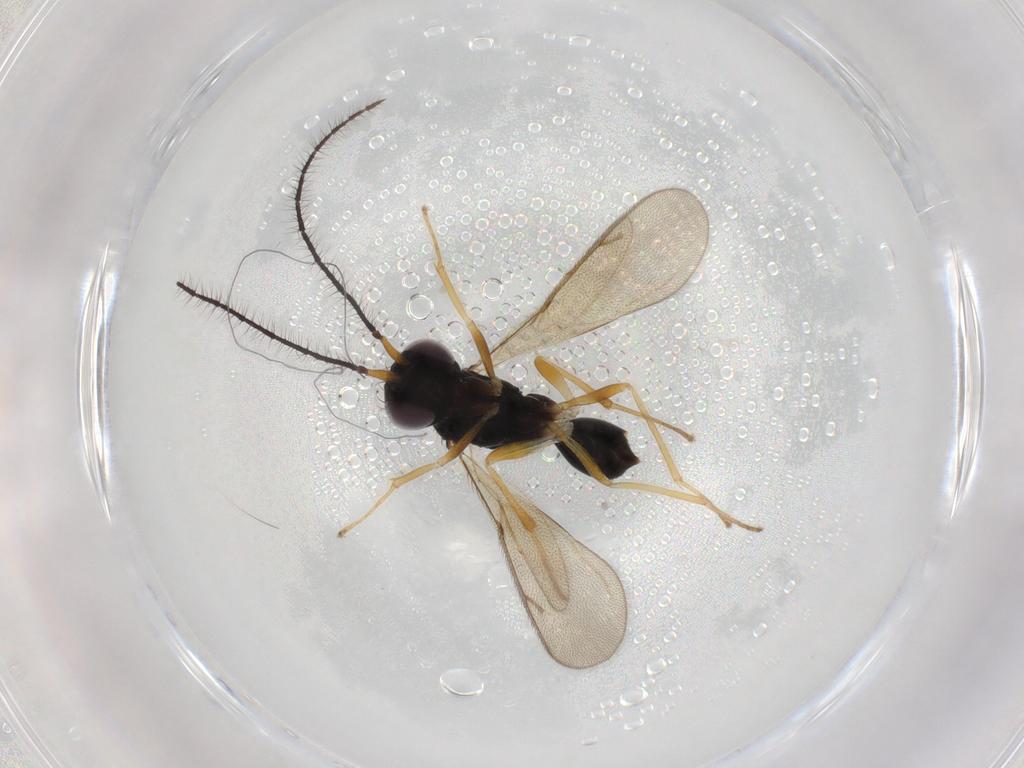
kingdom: Animalia
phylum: Arthropoda
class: Insecta
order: Hymenoptera
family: Diparidae
